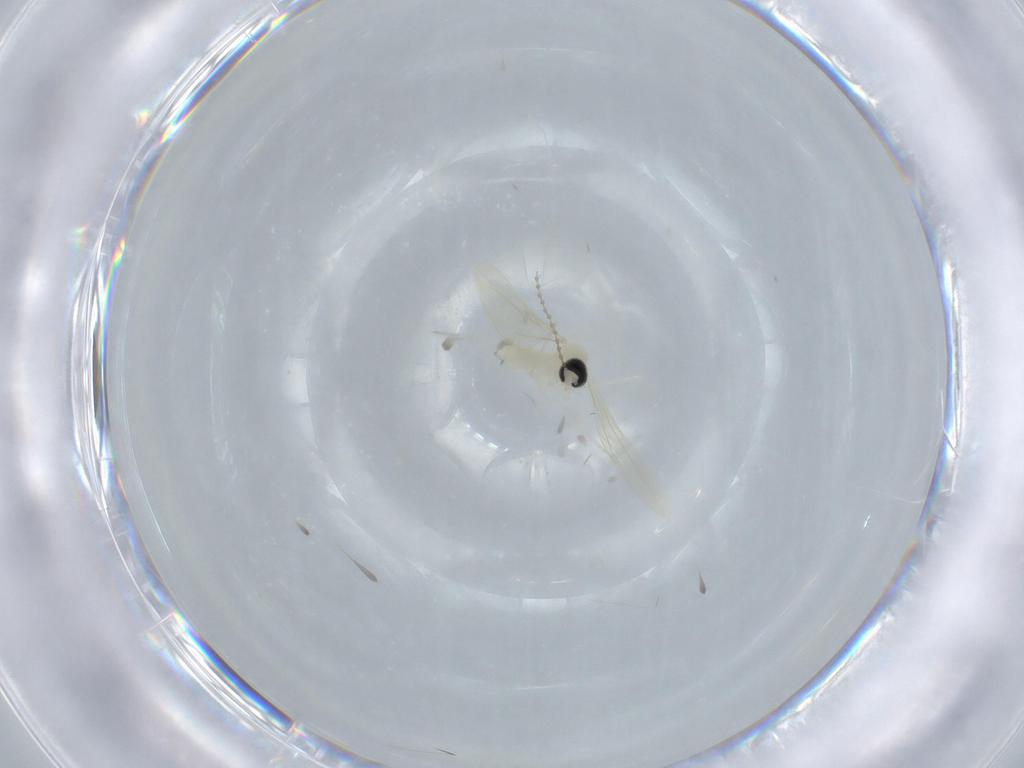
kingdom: Animalia
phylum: Arthropoda
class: Insecta
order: Diptera
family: Cecidomyiidae
